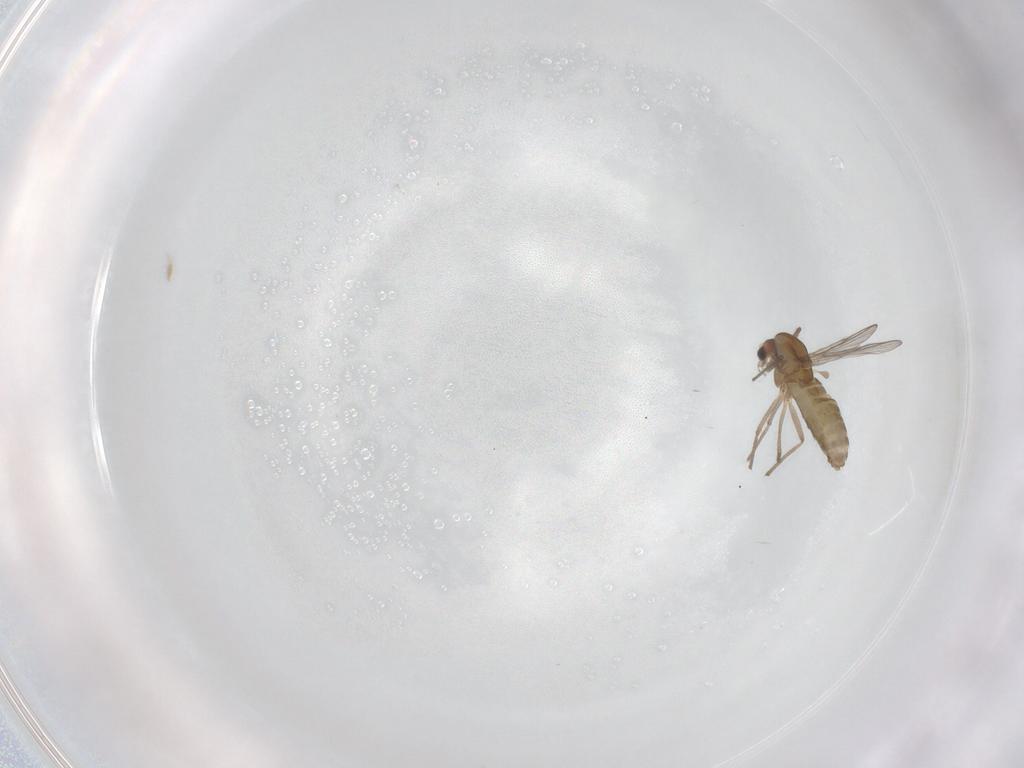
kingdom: Animalia
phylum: Arthropoda
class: Insecta
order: Diptera
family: Chironomidae
